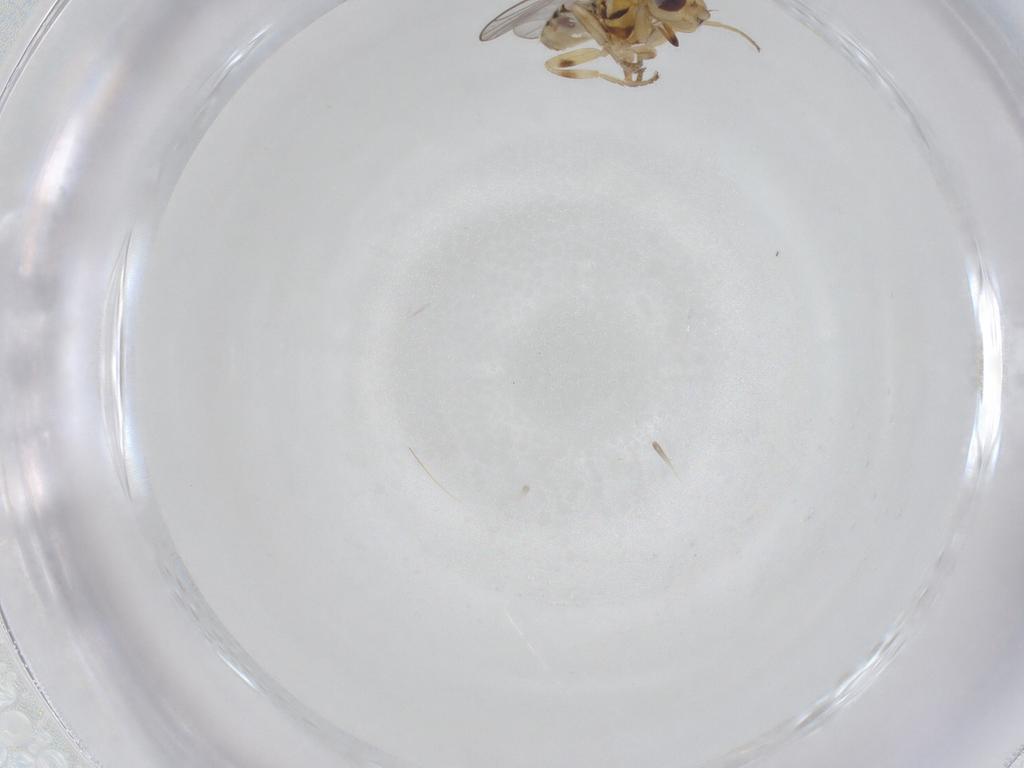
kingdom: Animalia
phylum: Arthropoda
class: Insecta
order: Diptera
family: Chloropidae
